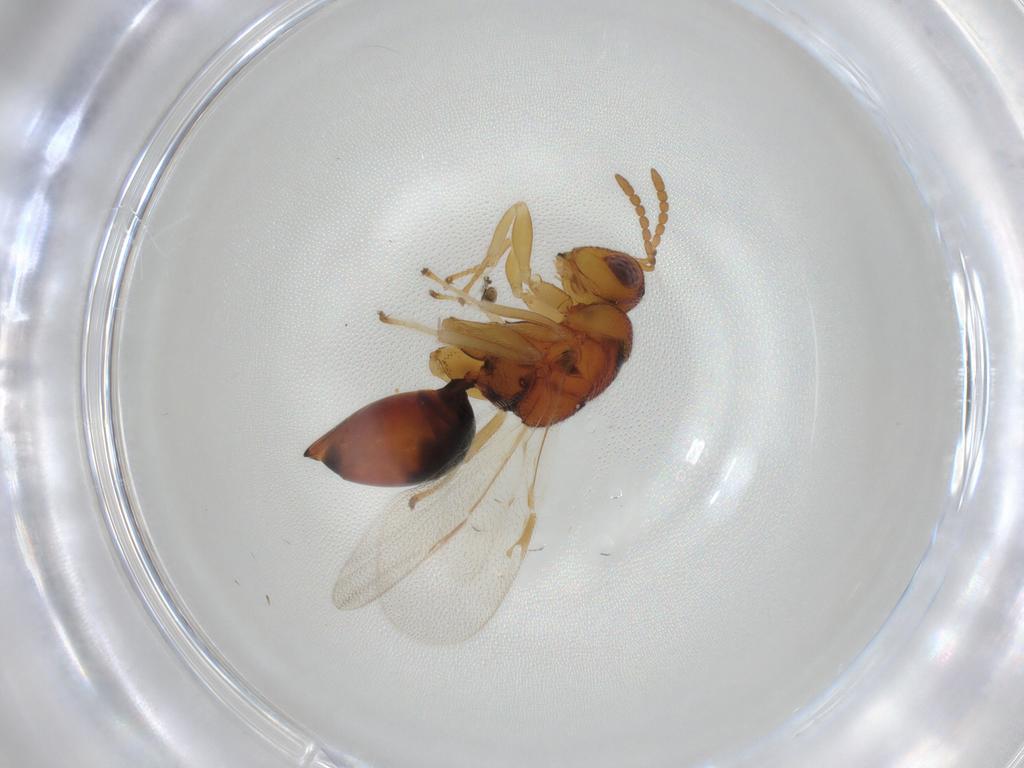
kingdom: Animalia
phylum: Arthropoda
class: Insecta
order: Hymenoptera
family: Eurytomidae
